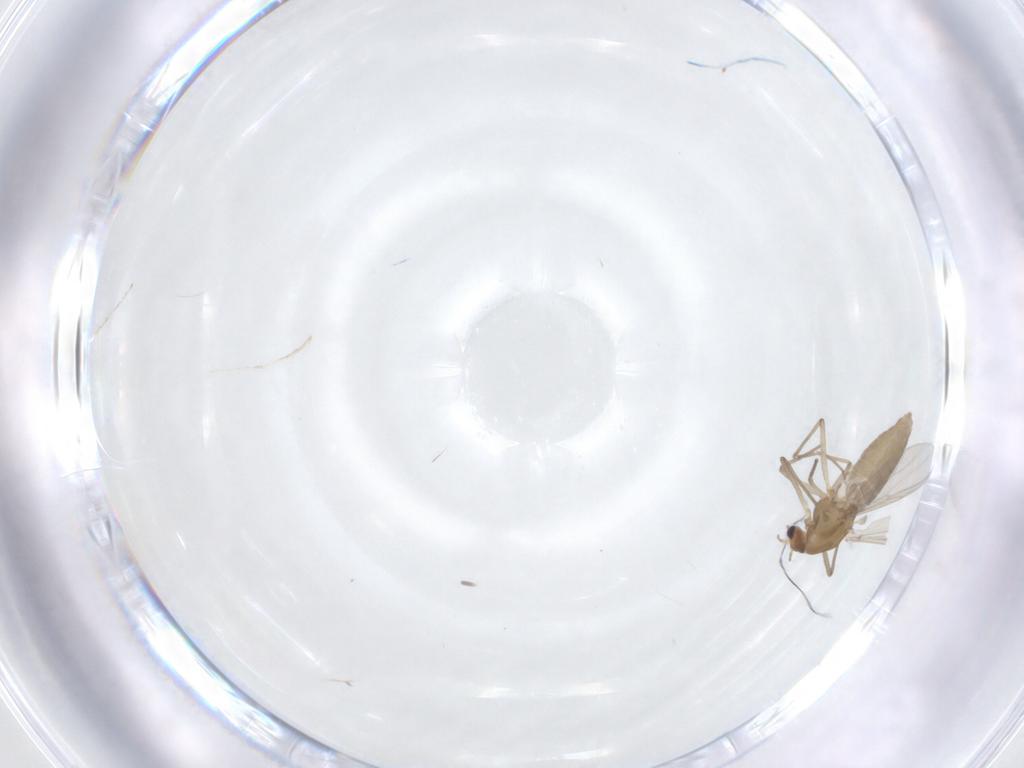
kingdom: Animalia
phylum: Arthropoda
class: Insecta
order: Diptera
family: Chironomidae
